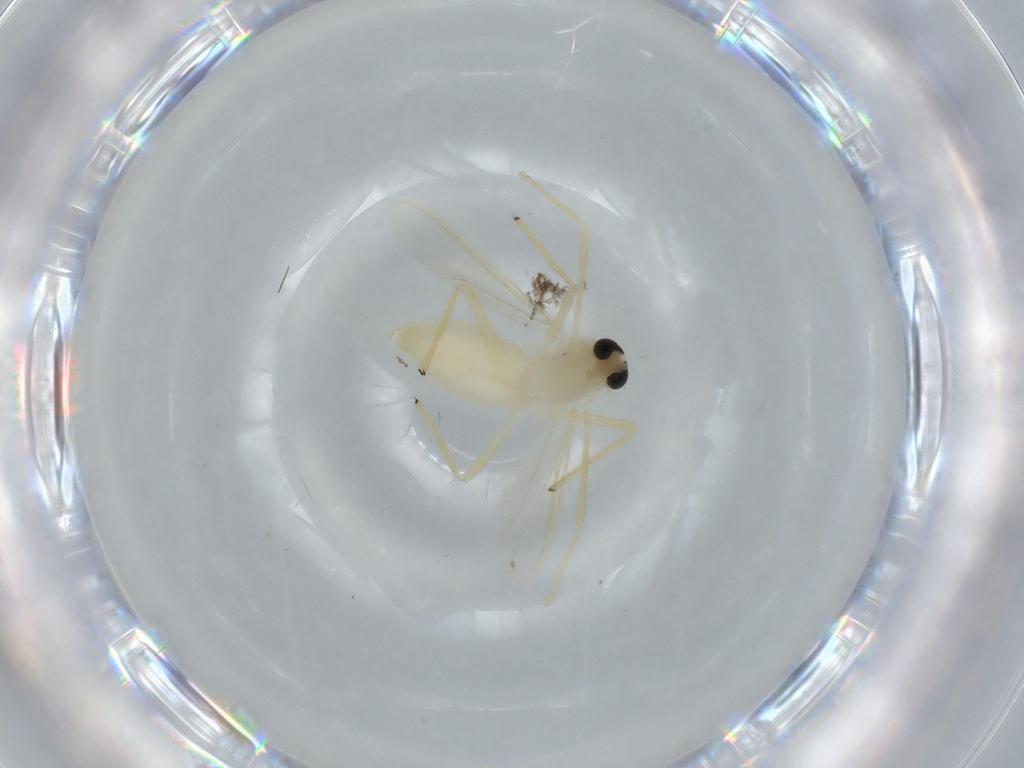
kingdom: Animalia
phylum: Arthropoda
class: Insecta
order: Diptera
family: Chironomidae
